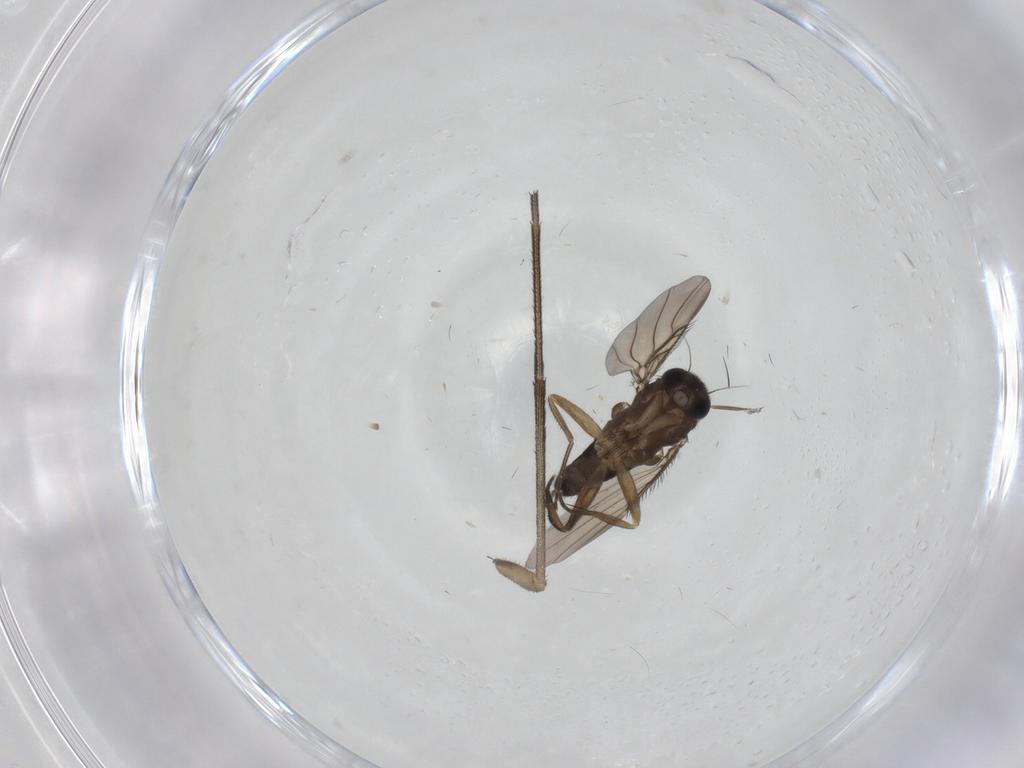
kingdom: Animalia
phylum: Arthropoda
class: Insecta
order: Diptera
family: Phoridae
